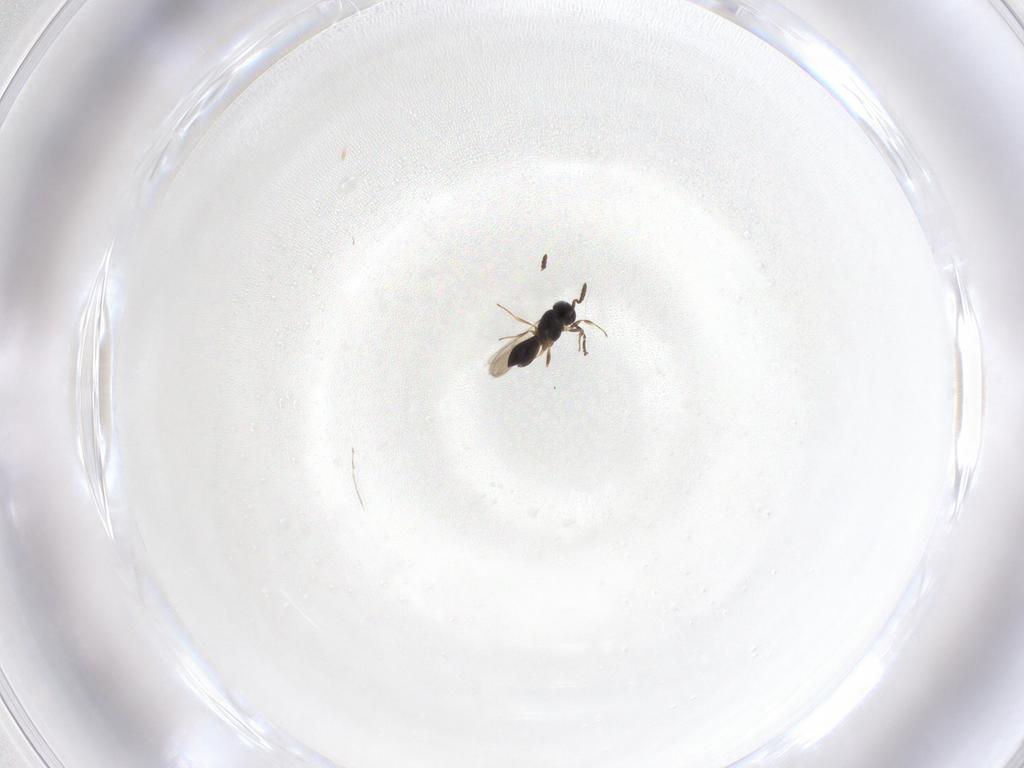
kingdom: Animalia
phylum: Arthropoda
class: Insecta
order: Hymenoptera
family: Scelionidae
